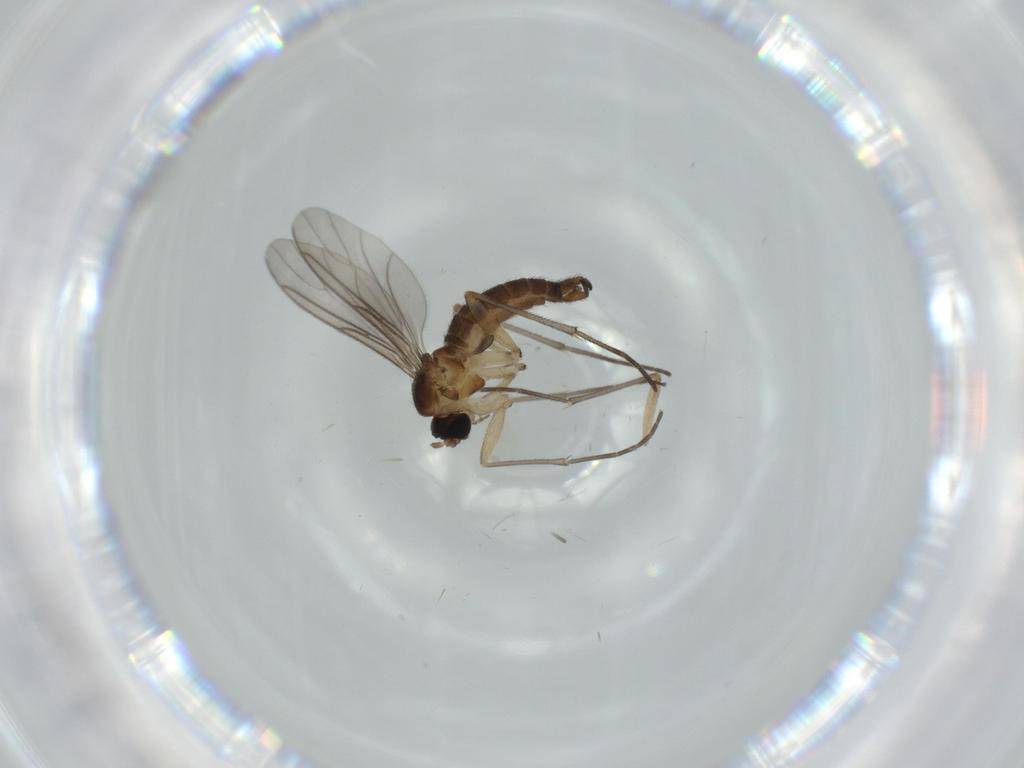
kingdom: Animalia
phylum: Arthropoda
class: Insecta
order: Diptera
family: Sciaridae
